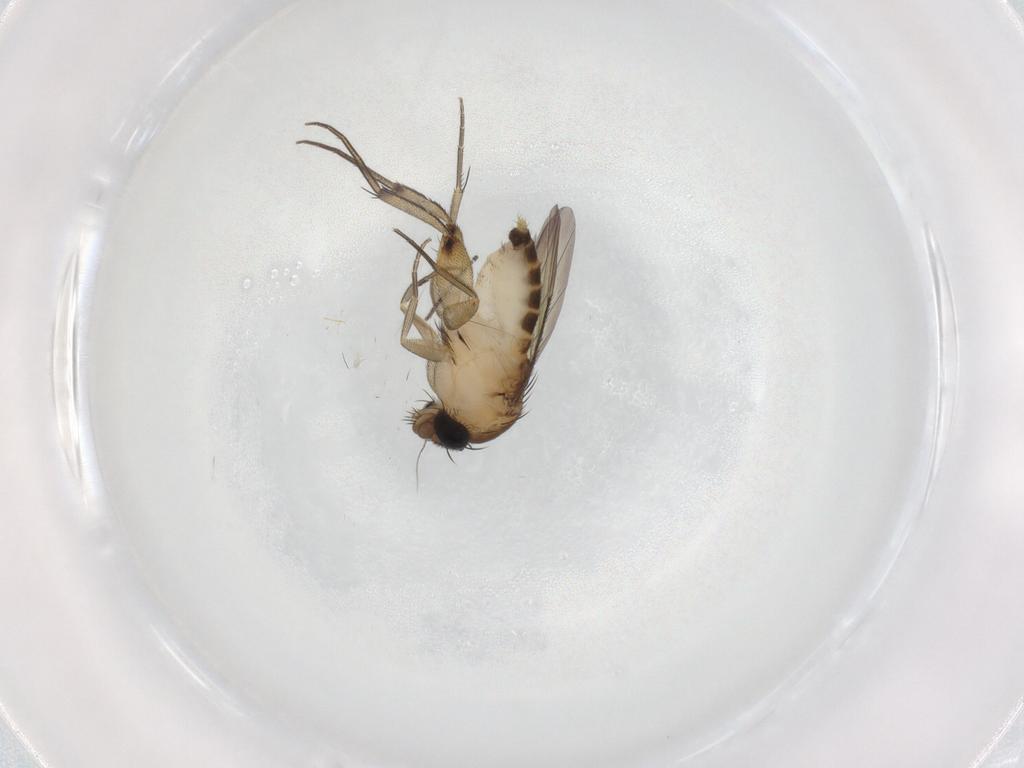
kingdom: Animalia
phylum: Arthropoda
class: Insecta
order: Diptera
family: Phoridae
